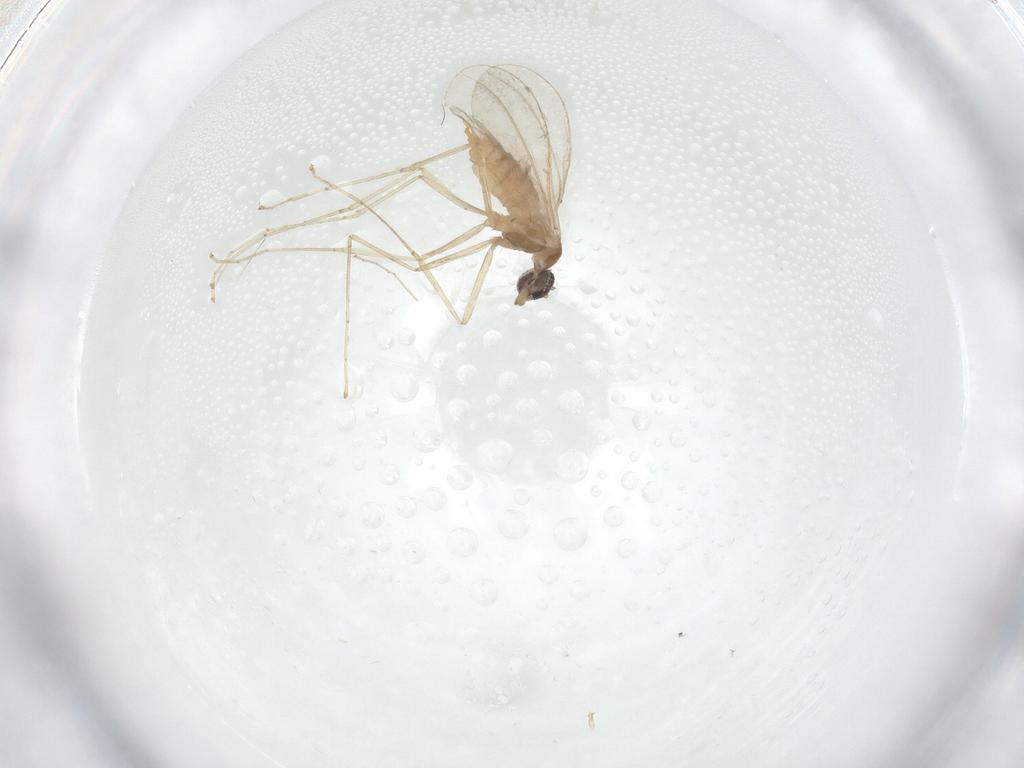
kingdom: Animalia
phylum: Arthropoda
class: Insecta
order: Diptera
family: Cecidomyiidae
